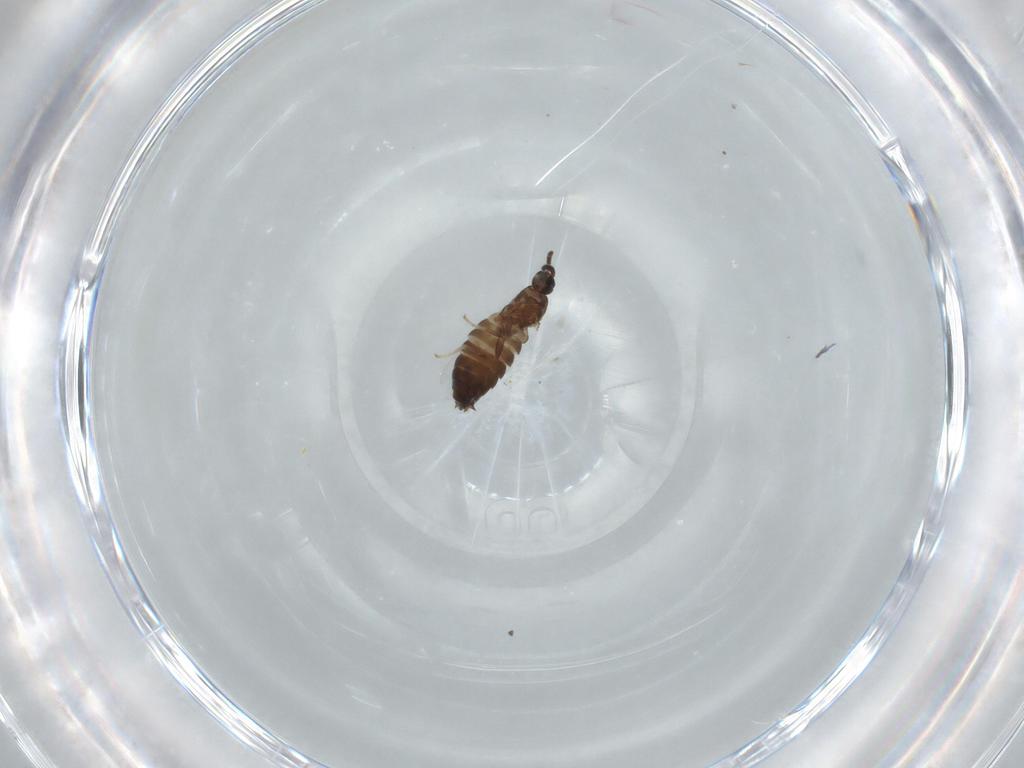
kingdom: Animalia
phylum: Arthropoda
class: Insecta
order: Diptera
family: Scatopsidae
